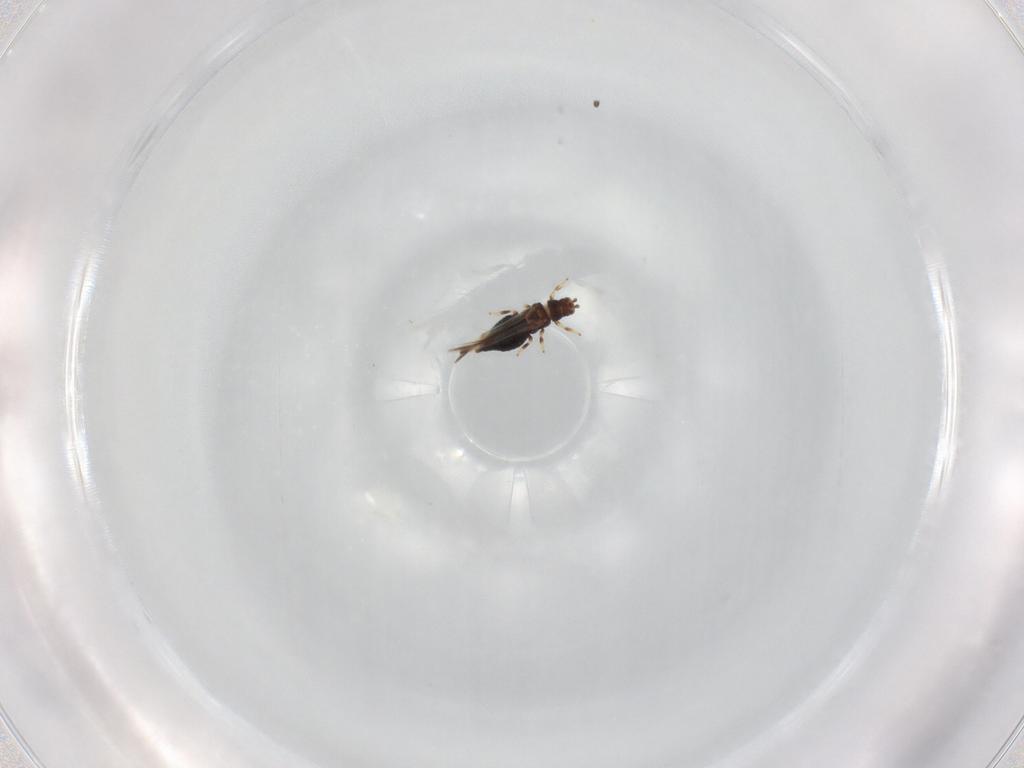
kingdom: Animalia
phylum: Arthropoda
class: Insecta
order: Thysanoptera
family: Thripidae
